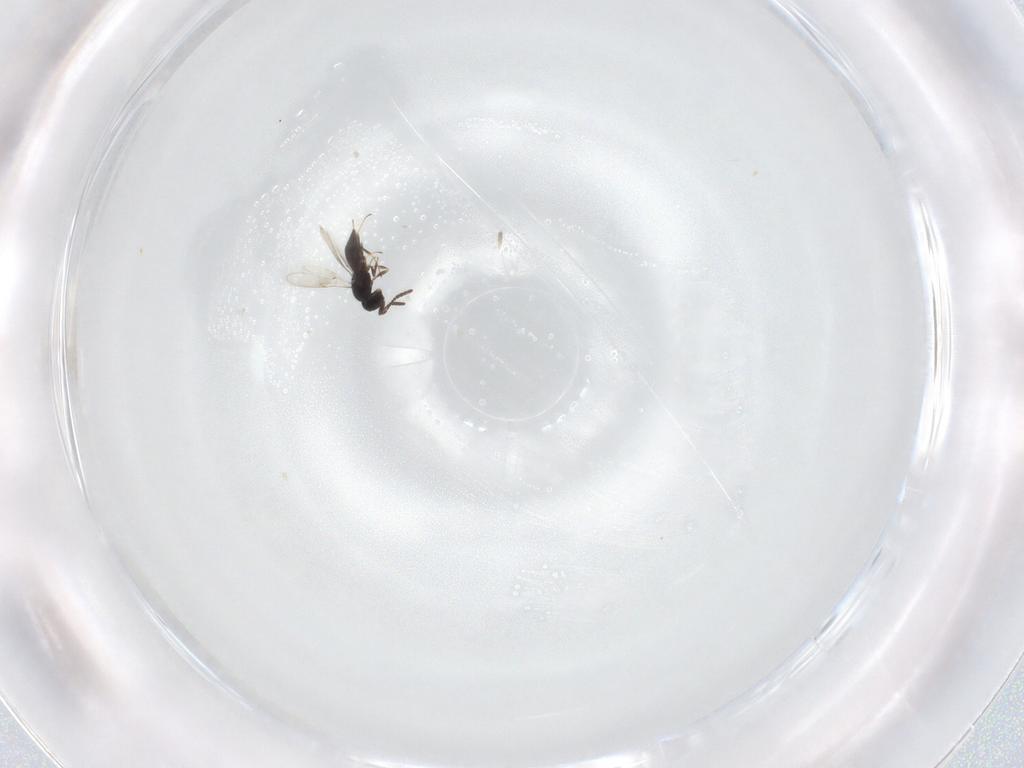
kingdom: Animalia
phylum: Arthropoda
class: Insecta
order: Hymenoptera
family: Scelionidae
